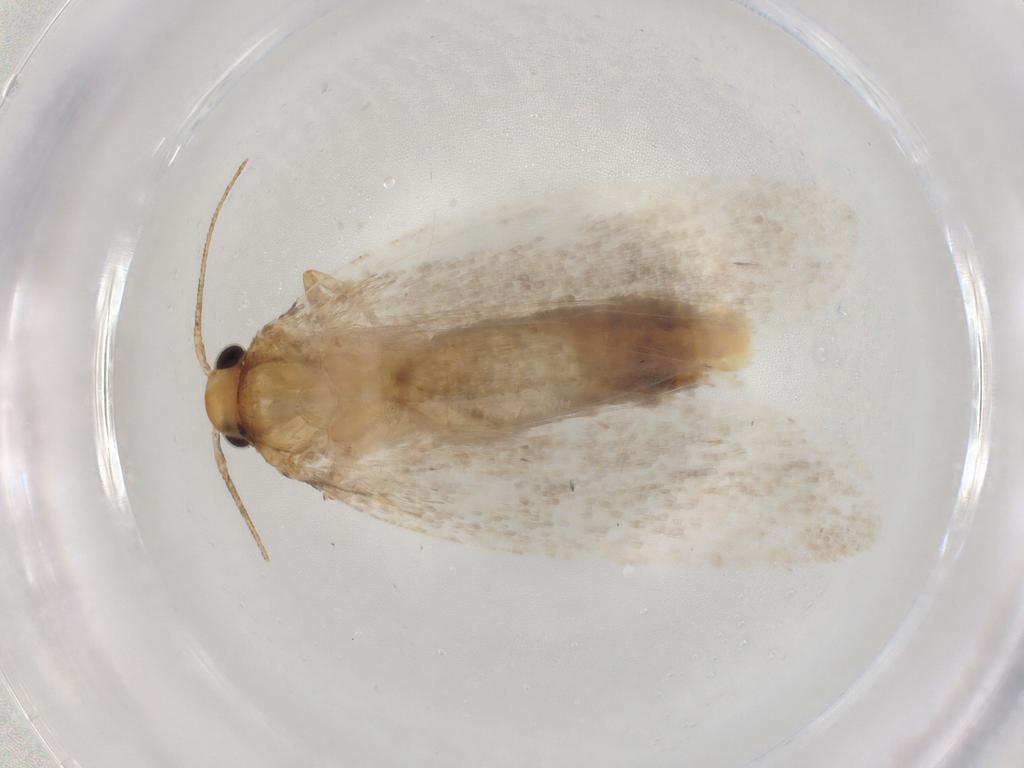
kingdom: Animalia
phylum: Arthropoda
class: Insecta
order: Lepidoptera
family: Oecophoridae
